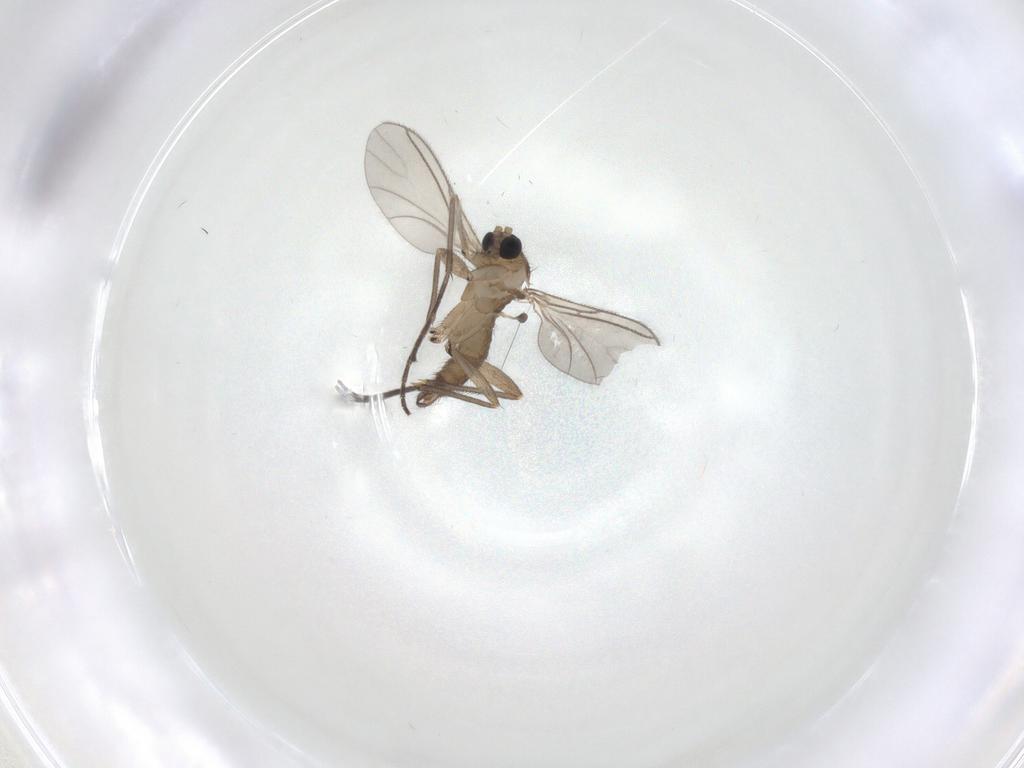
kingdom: Animalia
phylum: Arthropoda
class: Insecta
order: Diptera
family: Sciaridae
